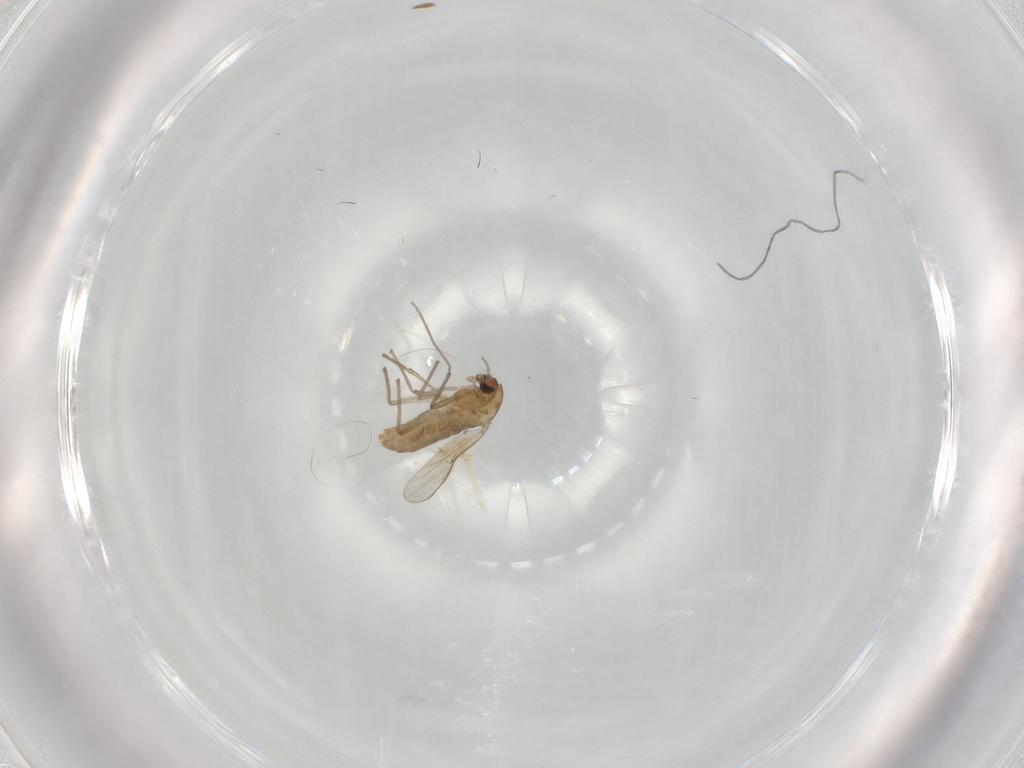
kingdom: Animalia
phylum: Arthropoda
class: Insecta
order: Diptera
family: Chironomidae
